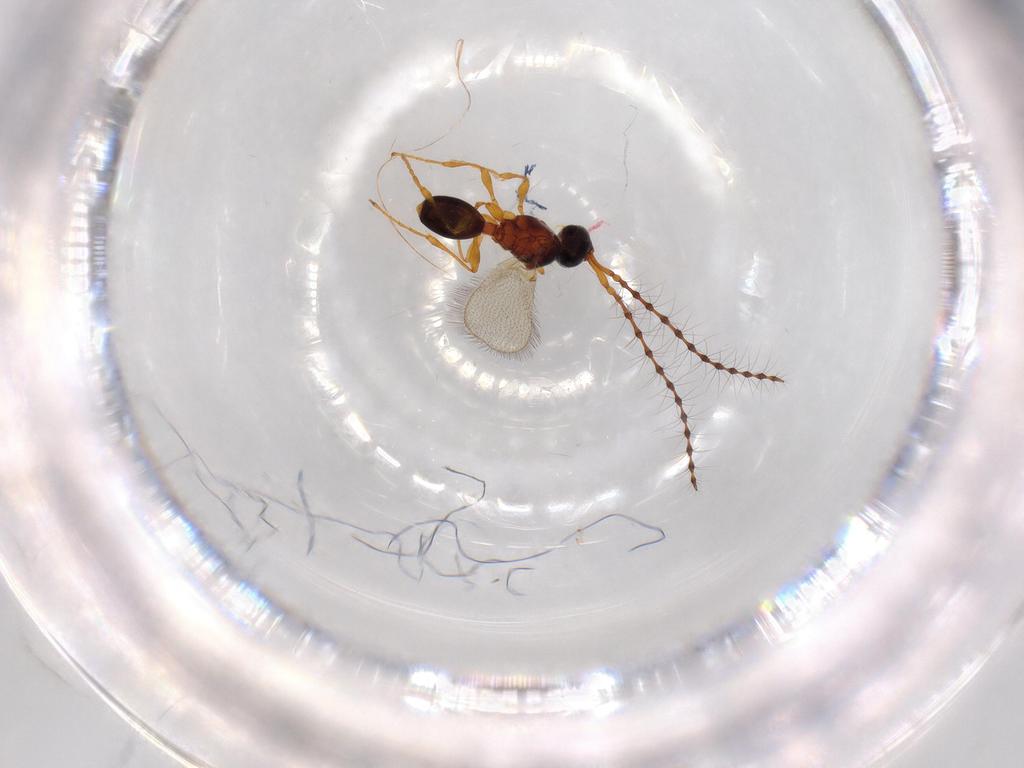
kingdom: Animalia
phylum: Arthropoda
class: Insecta
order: Hymenoptera
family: Diapriidae
